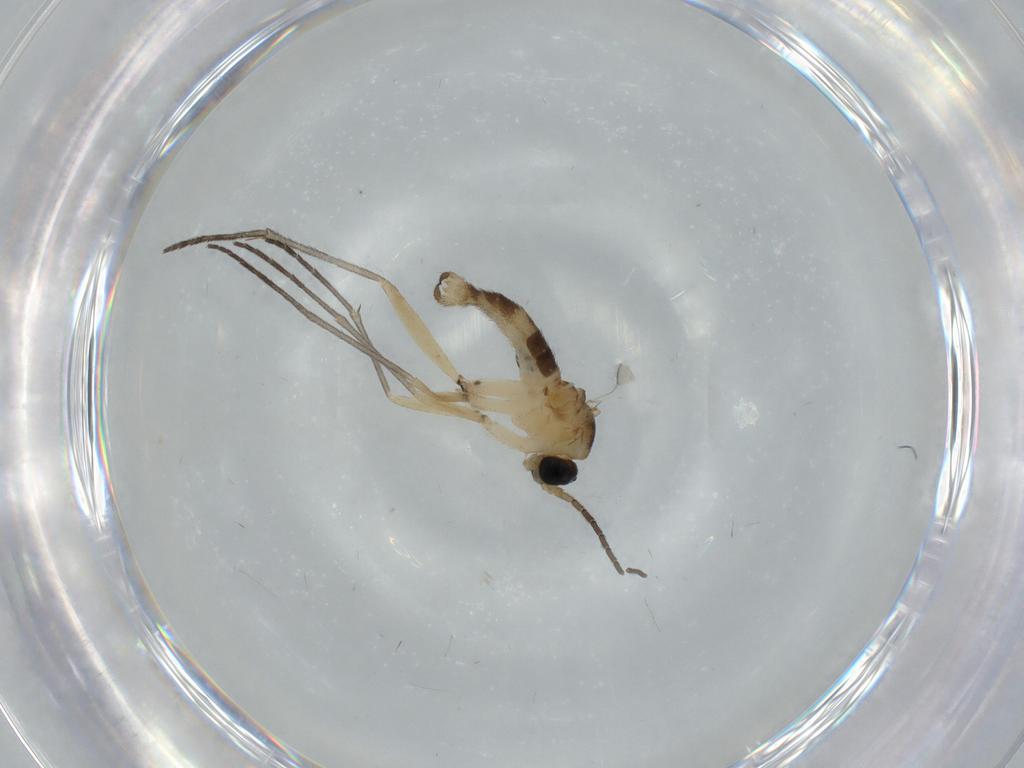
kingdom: Animalia
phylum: Arthropoda
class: Insecta
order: Diptera
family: Sciaridae
